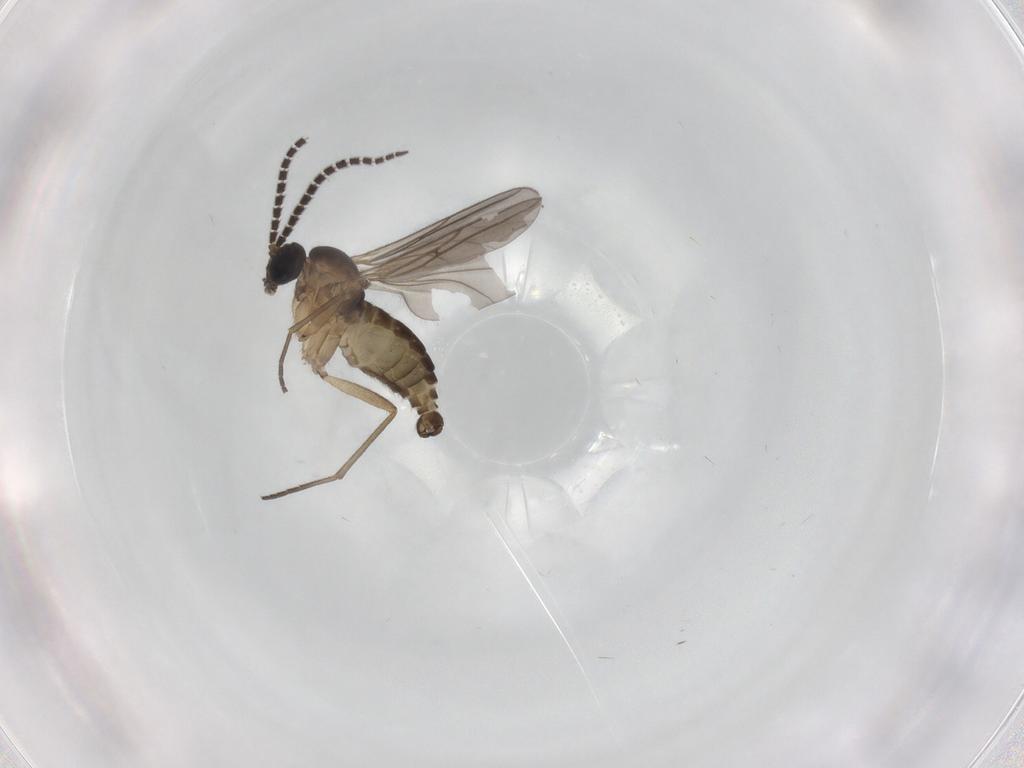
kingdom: Animalia
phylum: Arthropoda
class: Insecta
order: Diptera
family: Sciaridae
